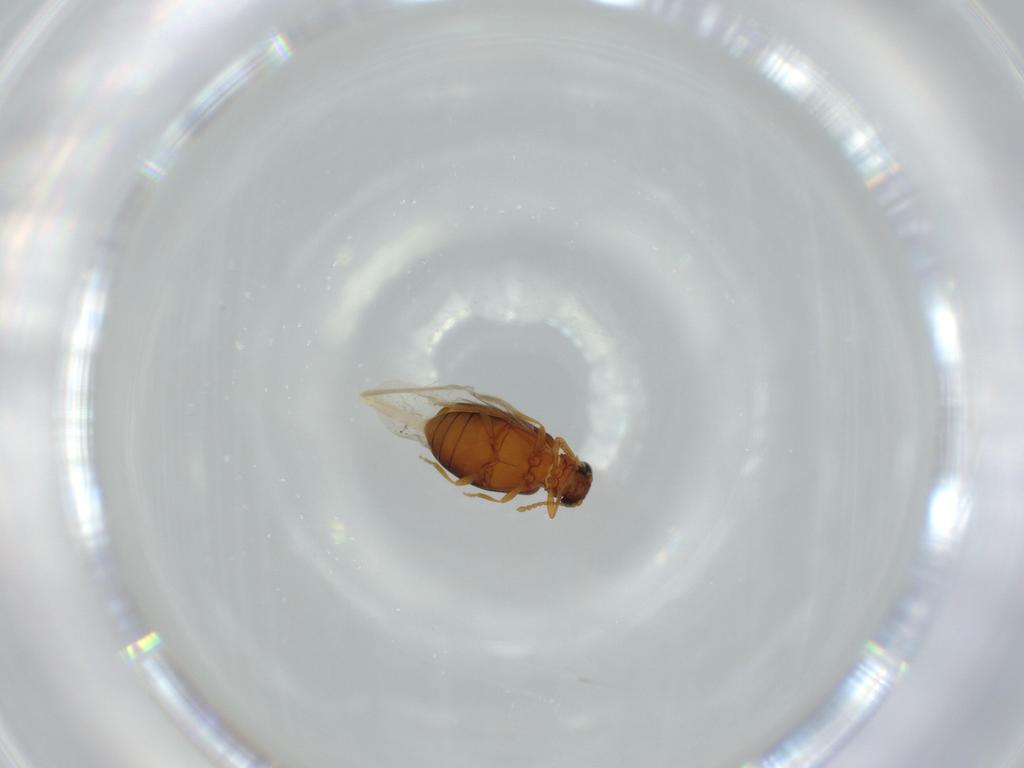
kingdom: Animalia
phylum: Arthropoda
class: Insecta
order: Coleoptera
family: Aderidae
